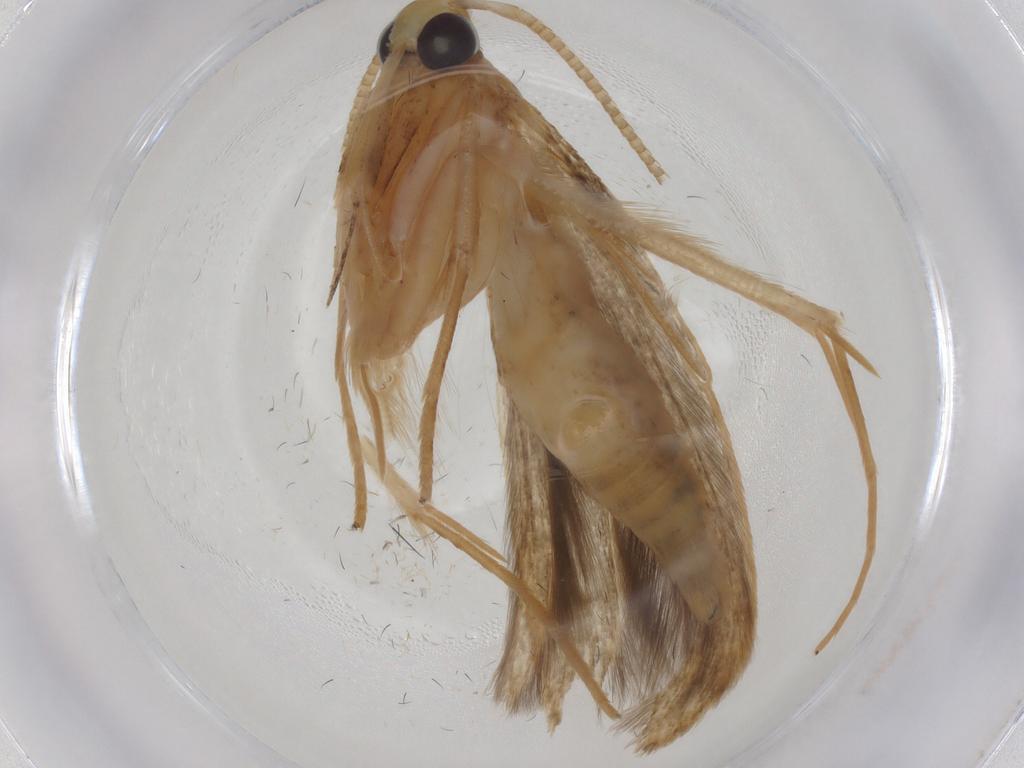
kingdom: Animalia
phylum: Arthropoda
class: Insecta
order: Lepidoptera
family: Coleophoridae
